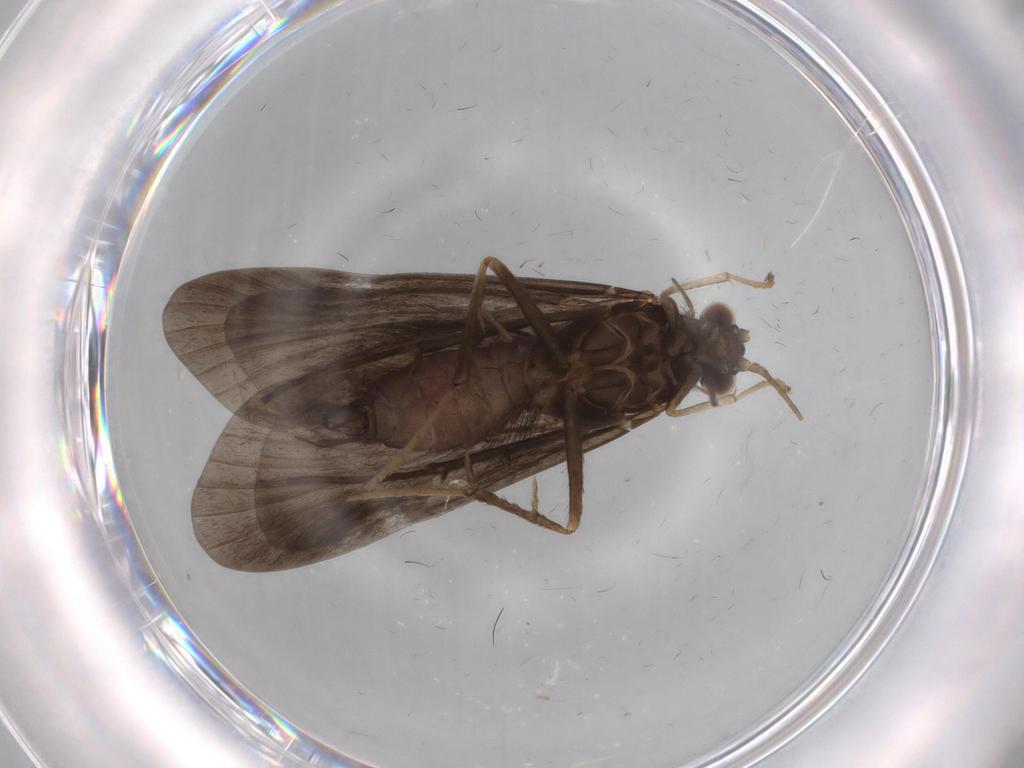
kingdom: Animalia
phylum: Arthropoda
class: Insecta
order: Trichoptera
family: Hydropsychidae
